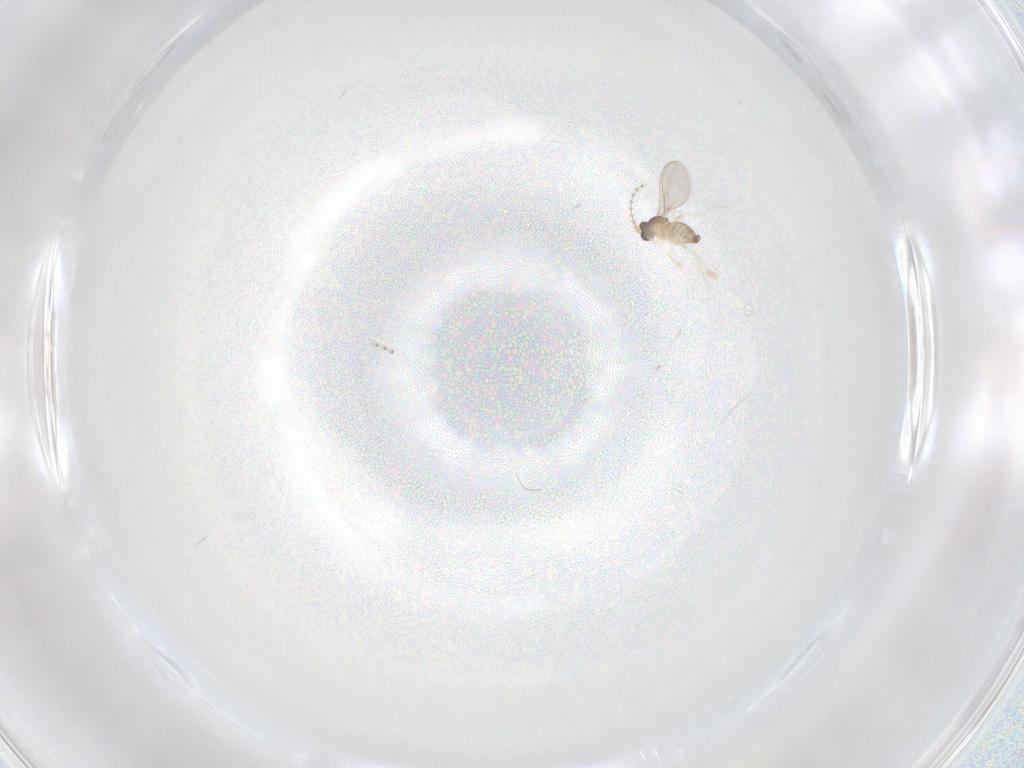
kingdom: Animalia
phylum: Arthropoda
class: Insecta
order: Diptera
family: Cecidomyiidae
